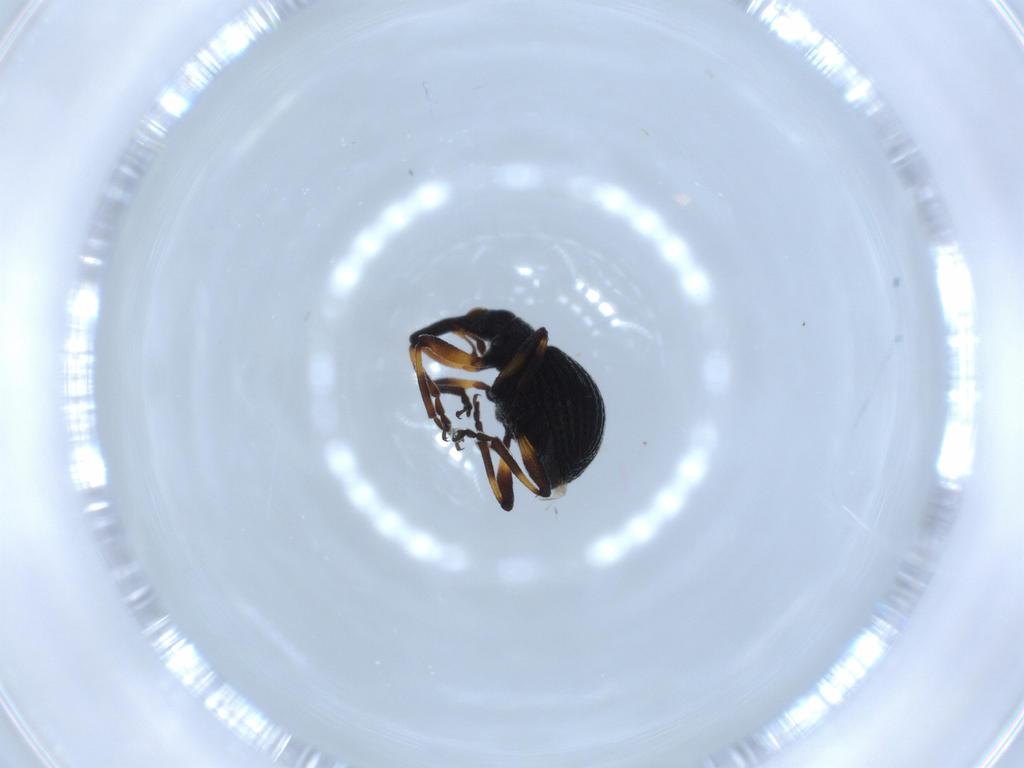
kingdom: Animalia
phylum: Arthropoda
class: Insecta
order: Coleoptera
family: Brentidae
